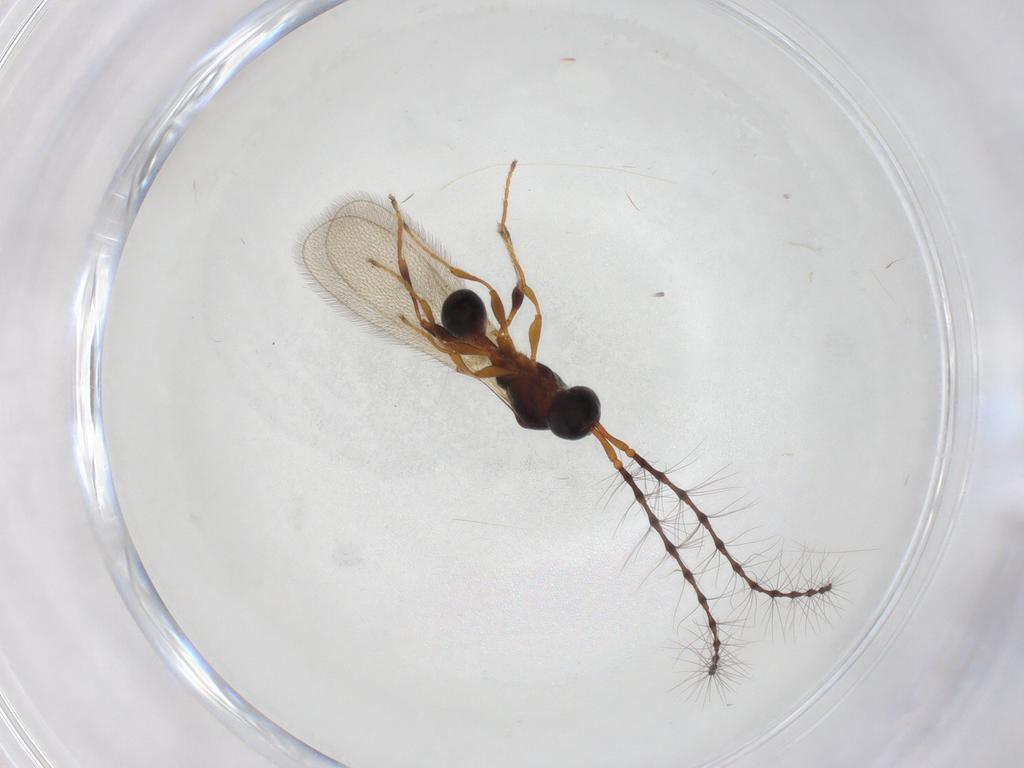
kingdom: Animalia
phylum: Arthropoda
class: Insecta
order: Hymenoptera
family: Diapriidae
